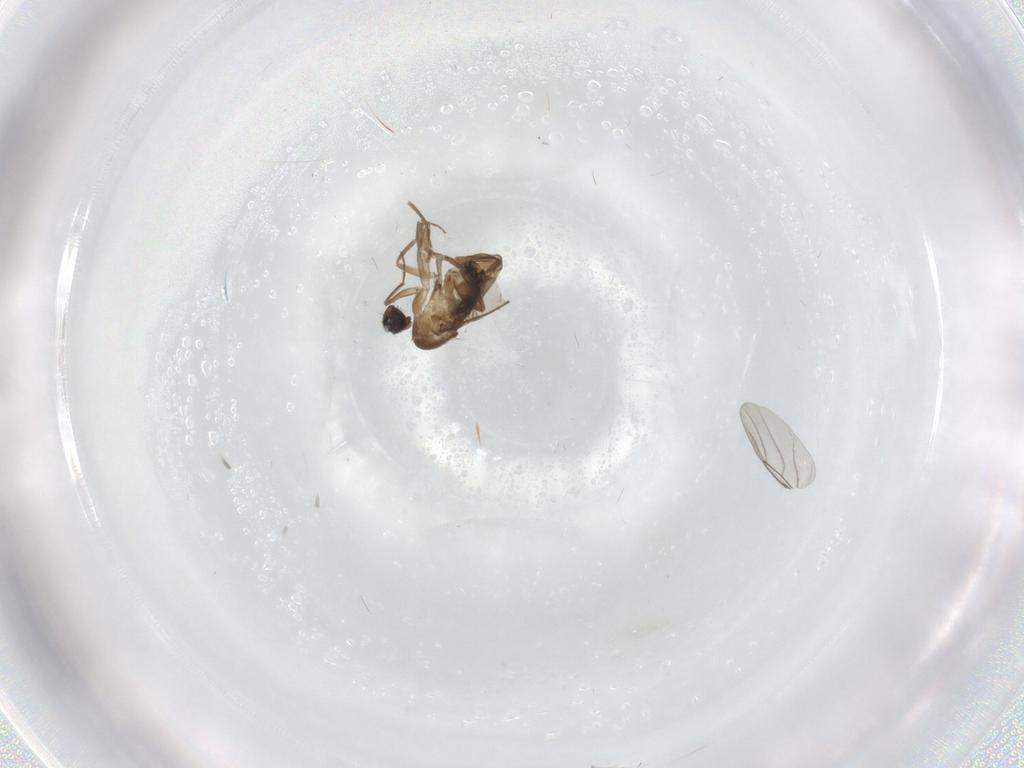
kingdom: Animalia
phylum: Arthropoda
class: Insecta
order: Diptera
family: Phoridae
